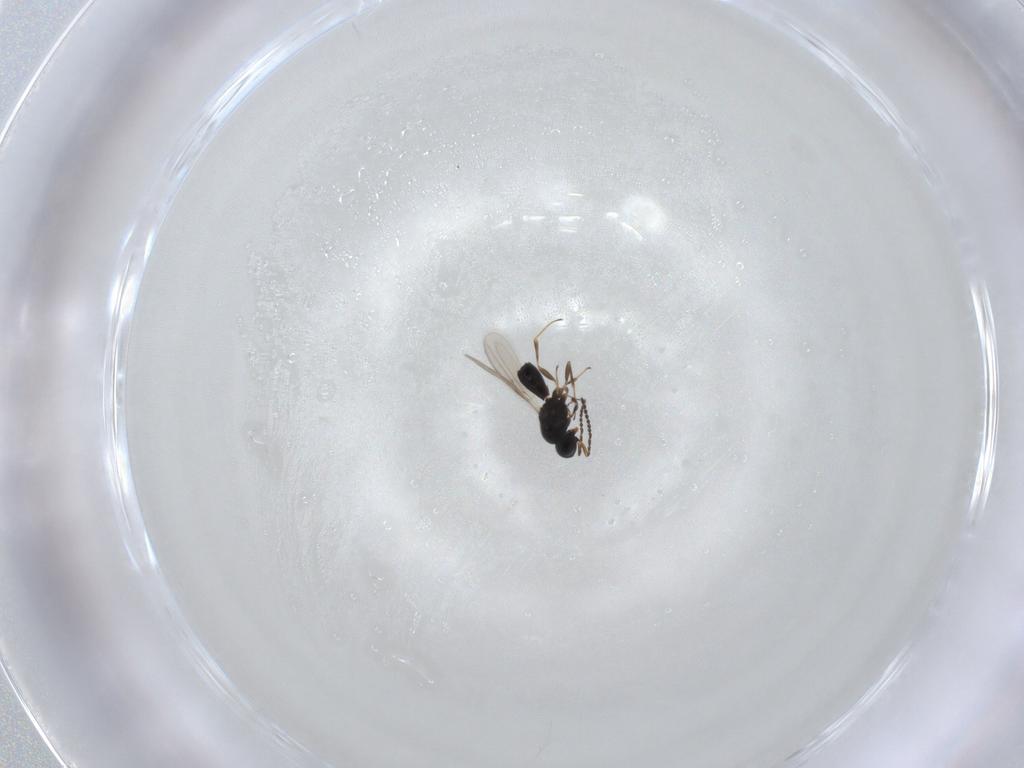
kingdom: Animalia
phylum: Arthropoda
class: Insecta
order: Hymenoptera
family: Scelionidae
